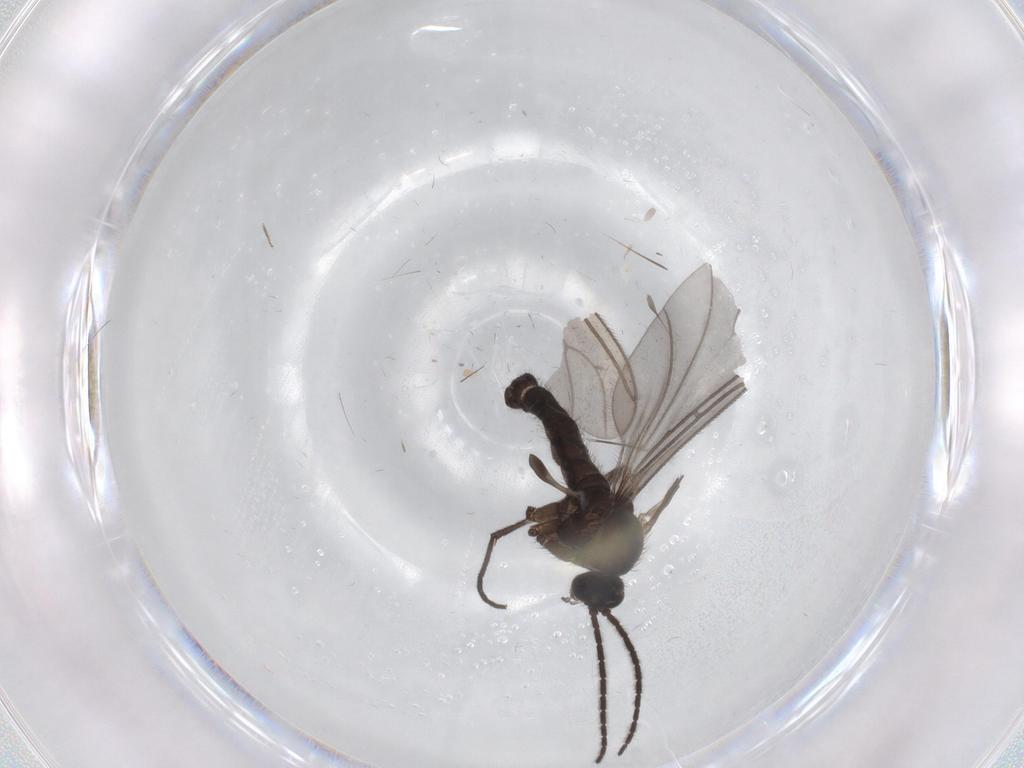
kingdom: Animalia
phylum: Arthropoda
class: Insecta
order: Diptera
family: Sciaridae
